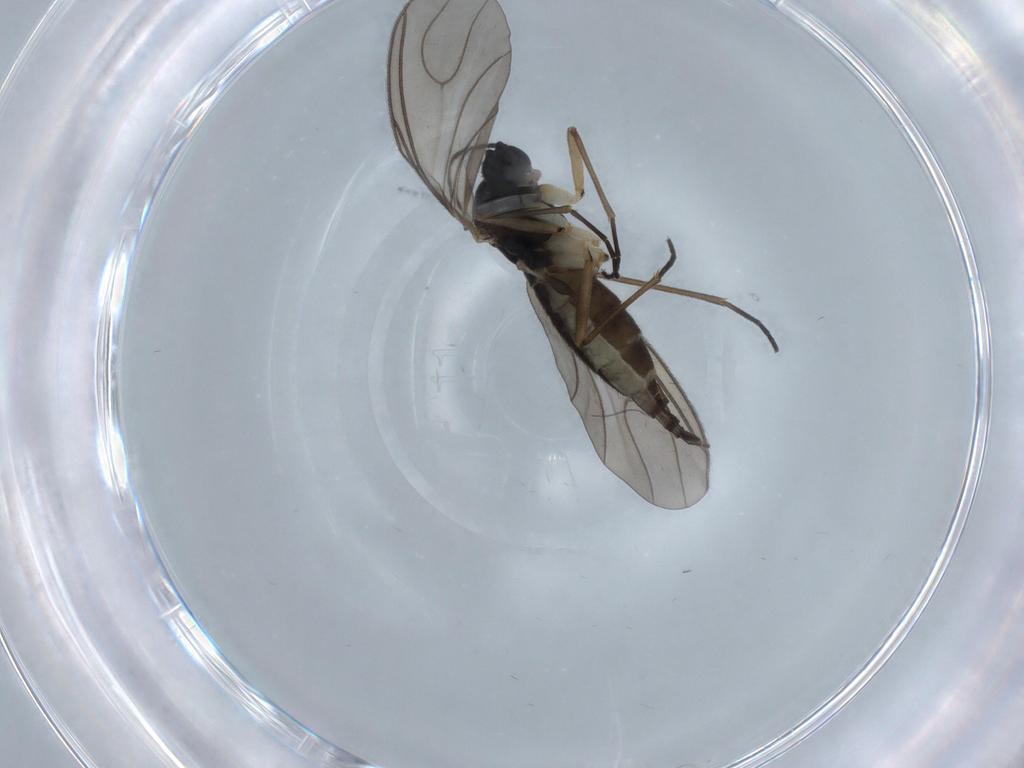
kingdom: Animalia
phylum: Arthropoda
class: Insecta
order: Diptera
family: Sciaridae
